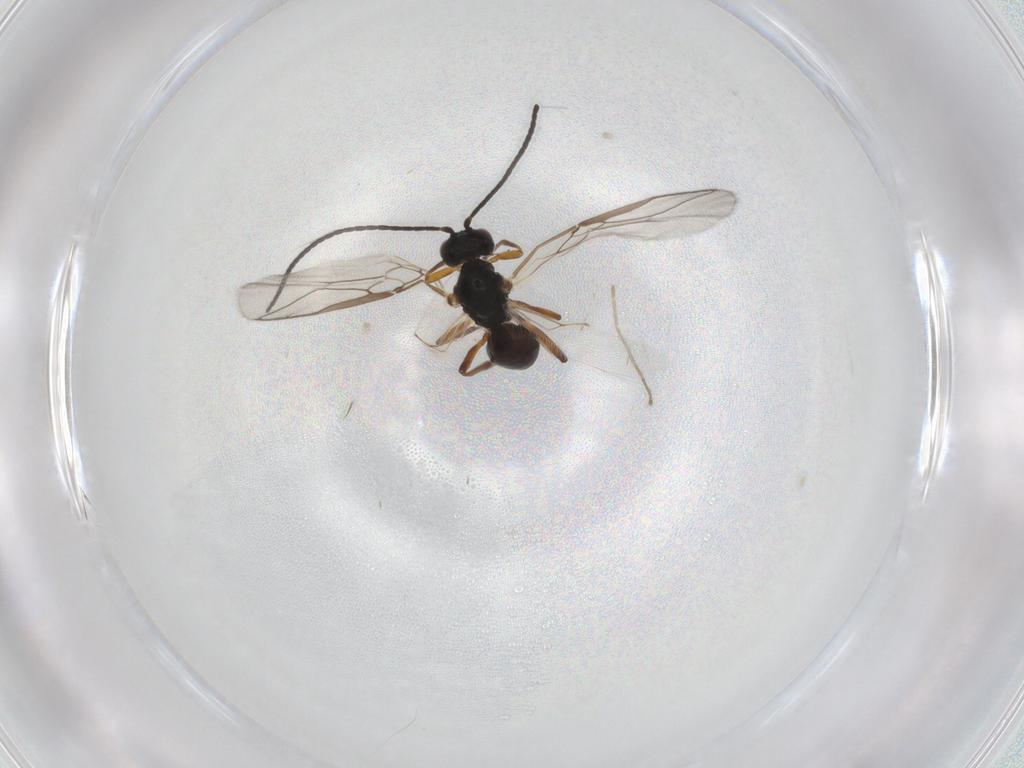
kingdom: Animalia
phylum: Arthropoda
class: Insecta
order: Hymenoptera
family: Braconidae
